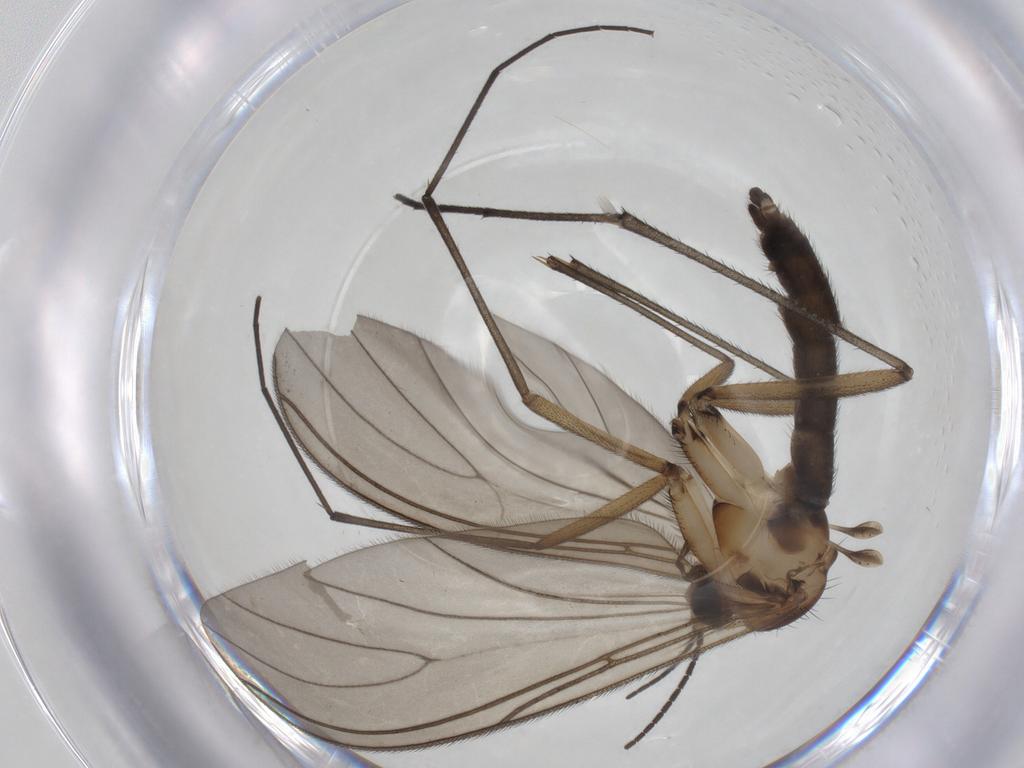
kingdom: Animalia
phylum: Arthropoda
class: Insecta
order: Diptera
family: Sciaridae
